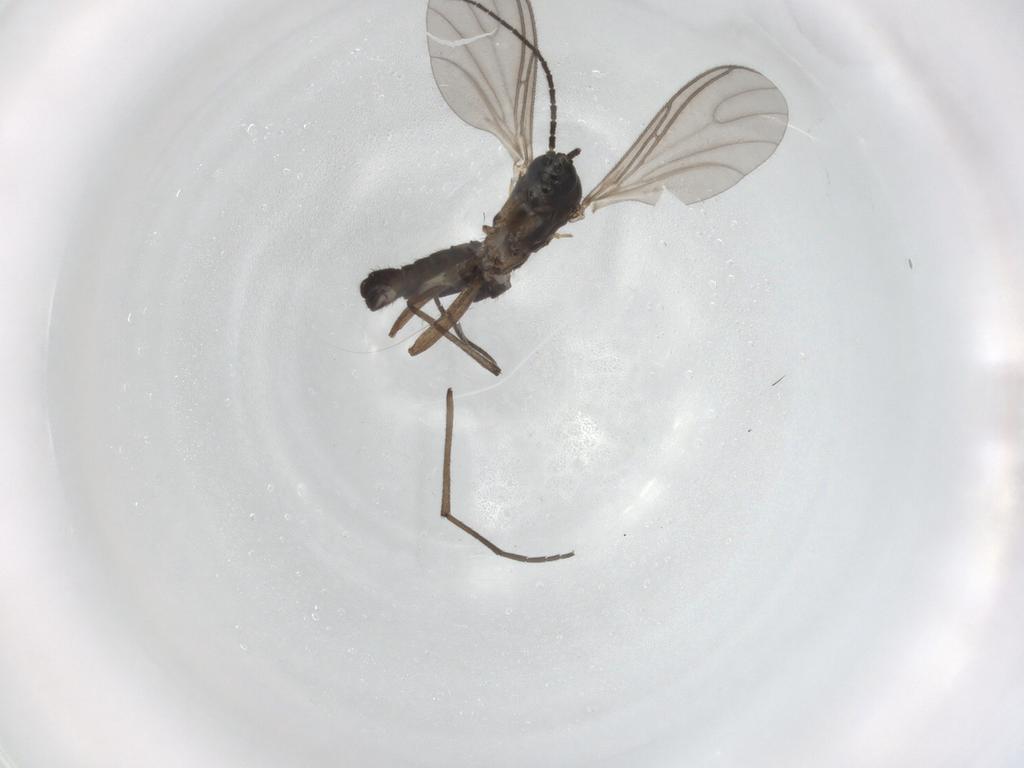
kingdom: Animalia
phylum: Arthropoda
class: Insecta
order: Diptera
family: Sciaridae
